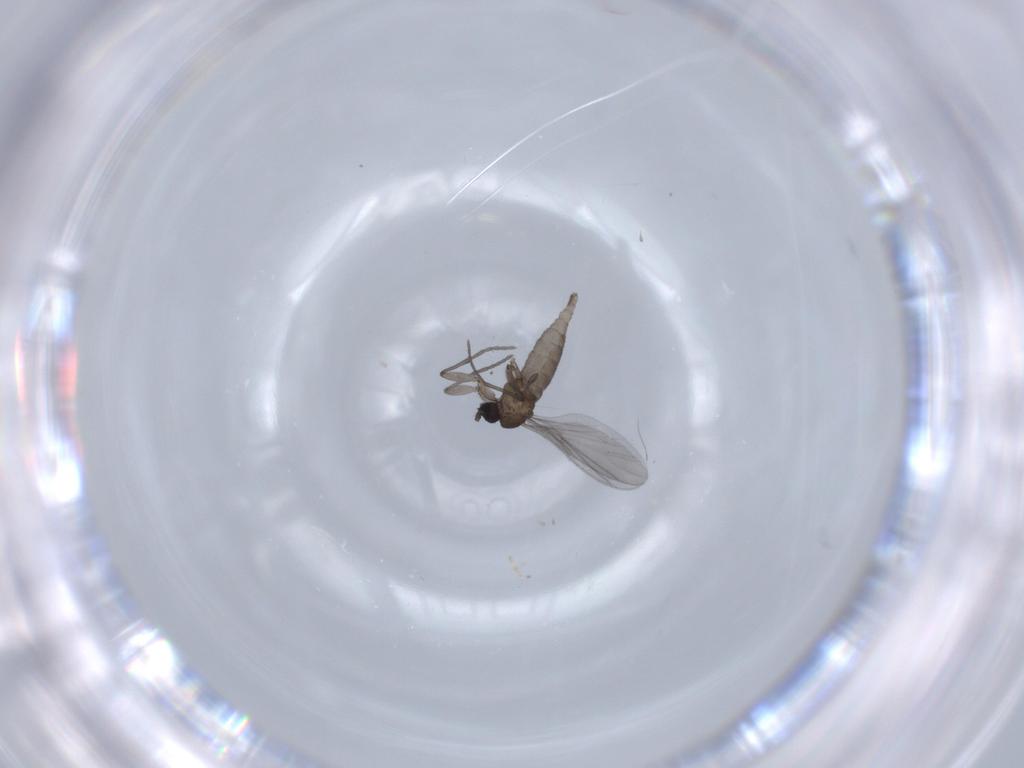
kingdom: Animalia
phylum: Arthropoda
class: Insecta
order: Diptera
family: Sciaridae
